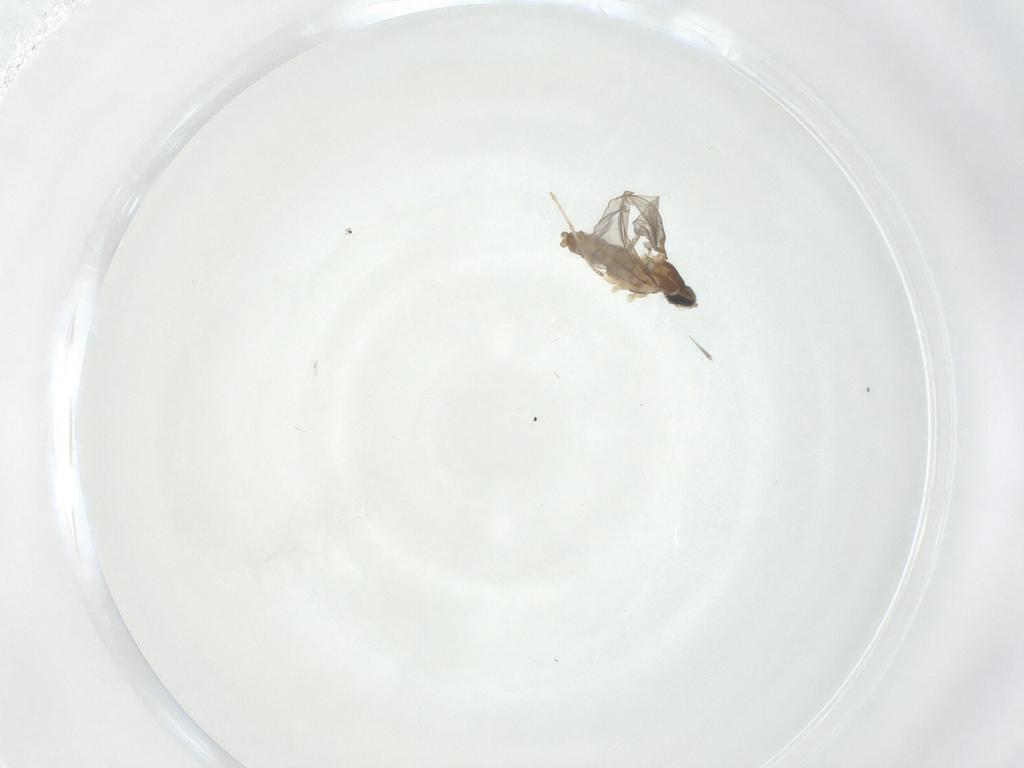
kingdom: Animalia
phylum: Arthropoda
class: Insecta
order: Diptera
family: Cecidomyiidae
